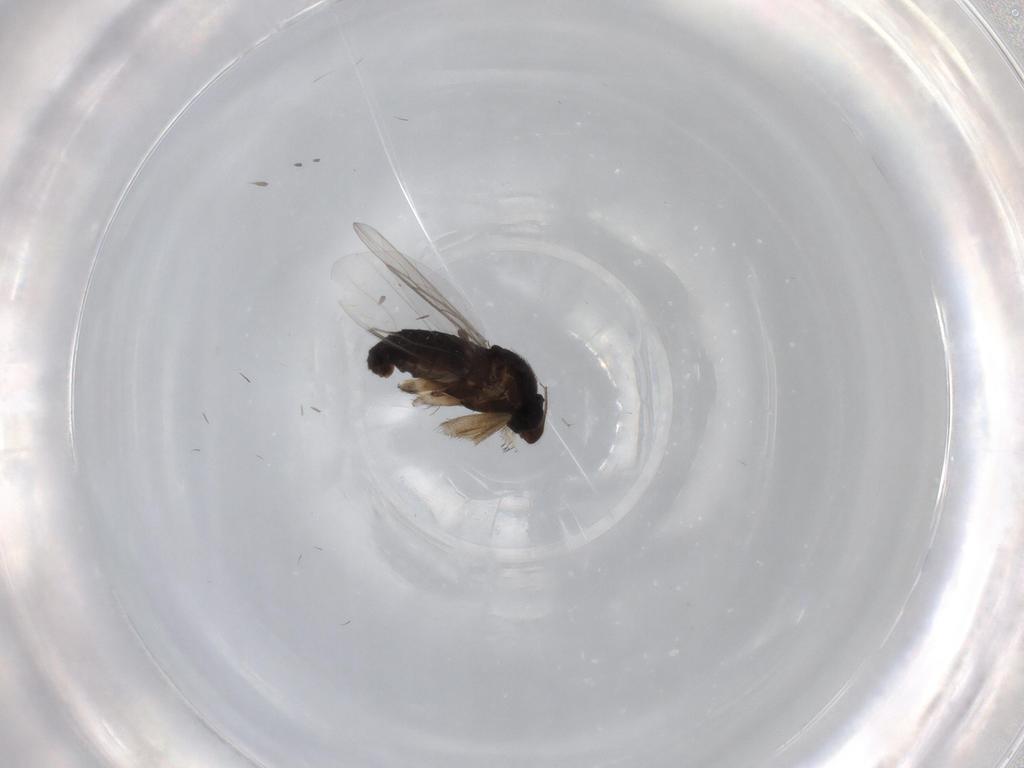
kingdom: Animalia
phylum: Arthropoda
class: Insecta
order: Diptera
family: Phoridae
